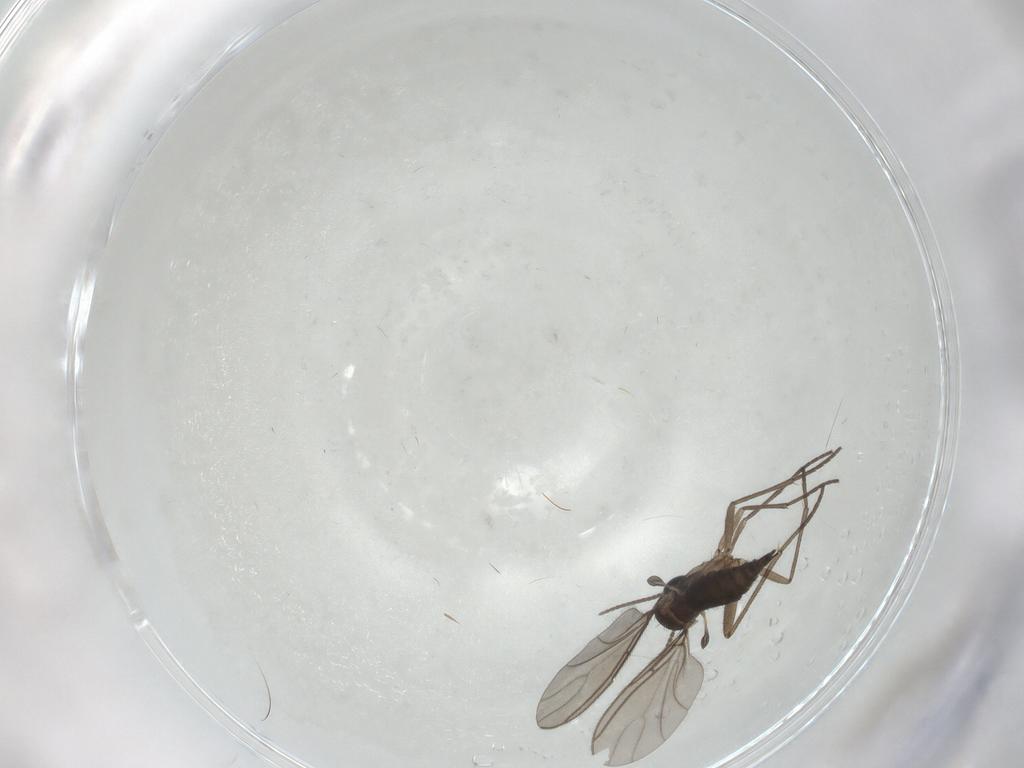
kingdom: Animalia
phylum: Arthropoda
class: Insecta
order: Diptera
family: Sciaridae
